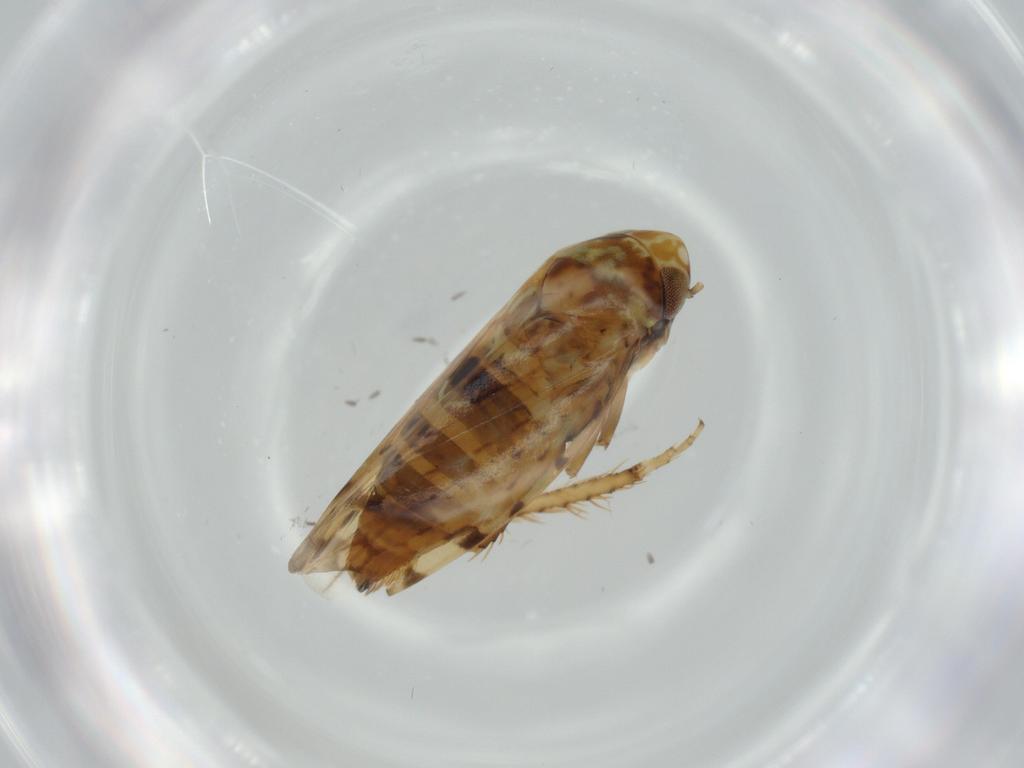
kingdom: Animalia
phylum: Arthropoda
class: Insecta
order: Hemiptera
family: Cicadellidae
